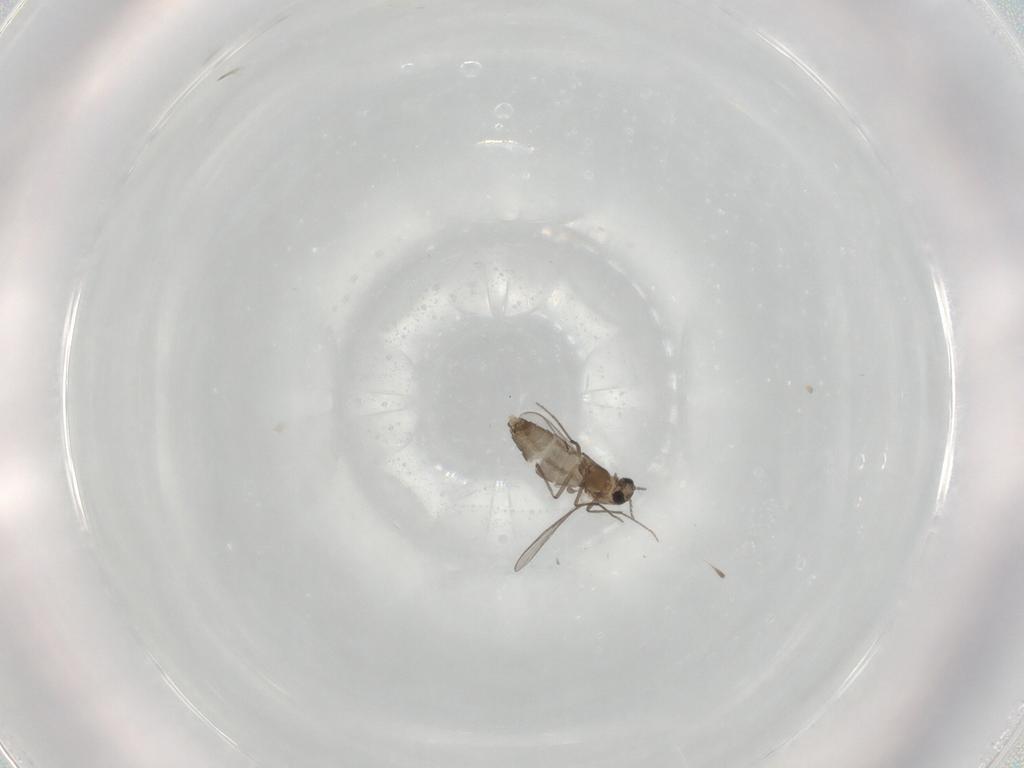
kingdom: Animalia
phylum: Arthropoda
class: Insecta
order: Diptera
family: Chironomidae
